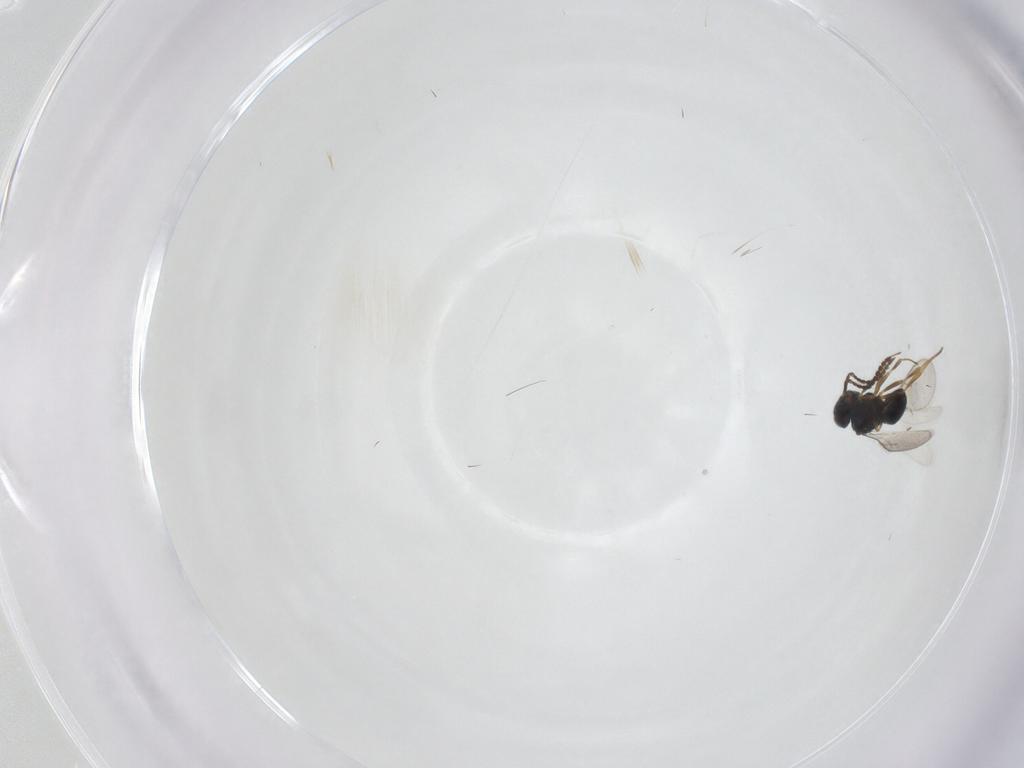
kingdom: Animalia
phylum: Arthropoda
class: Insecta
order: Hymenoptera
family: Scelionidae
